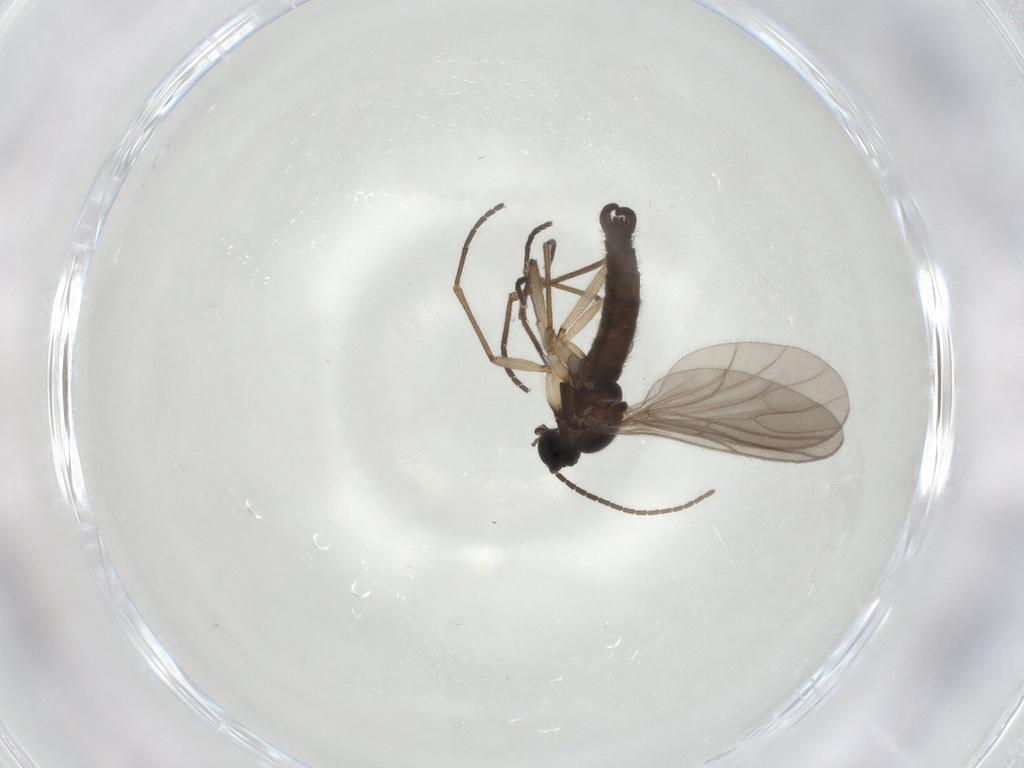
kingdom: Animalia
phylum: Arthropoda
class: Insecta
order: Diptera
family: Sciaridae
